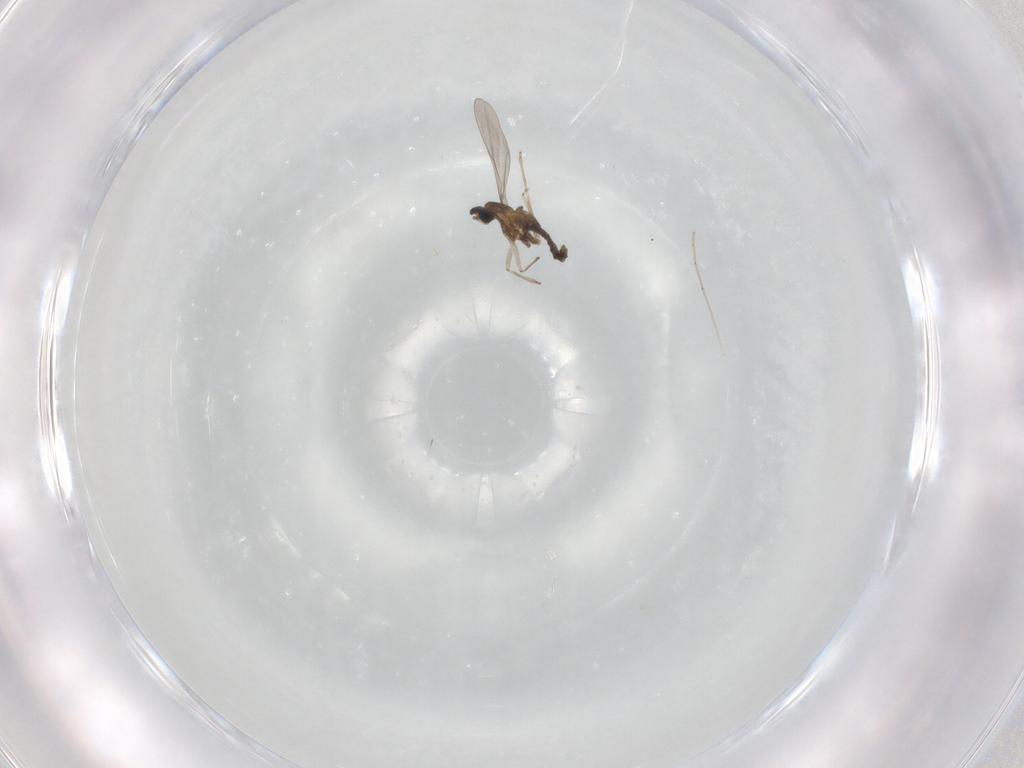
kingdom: Animalia
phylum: Arthropoda
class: Insecta
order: Diptera
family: Cecidomyiidae
